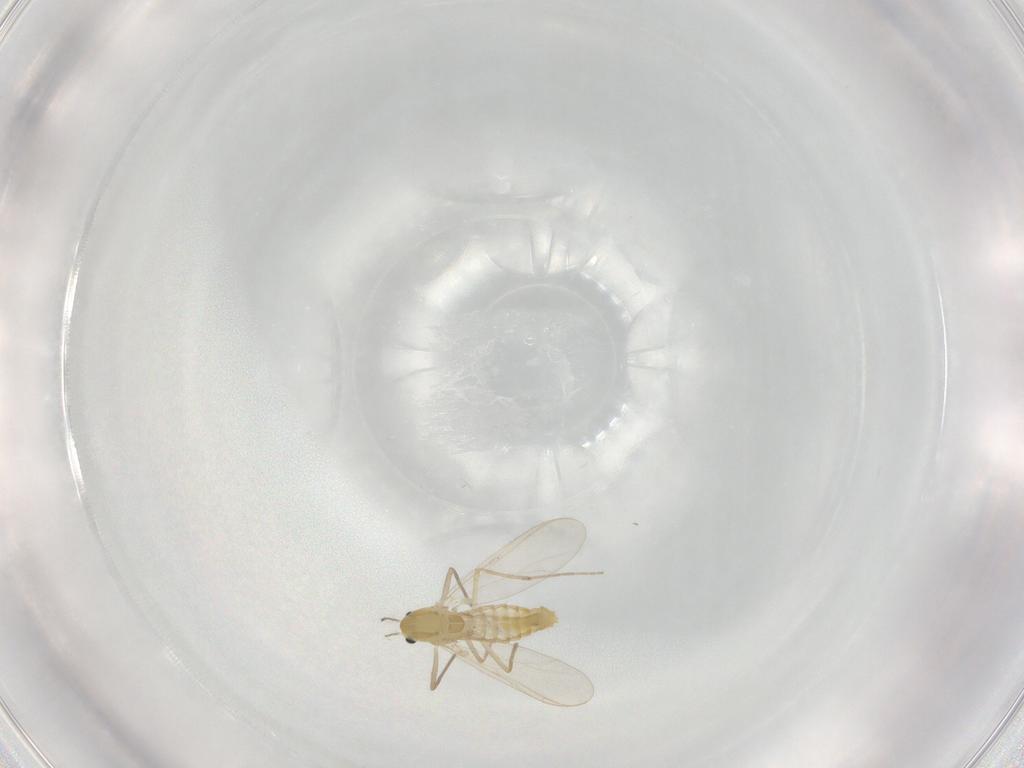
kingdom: Animalia
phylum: Arthropoda
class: Insecta
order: Diptera
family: Chironomidae
